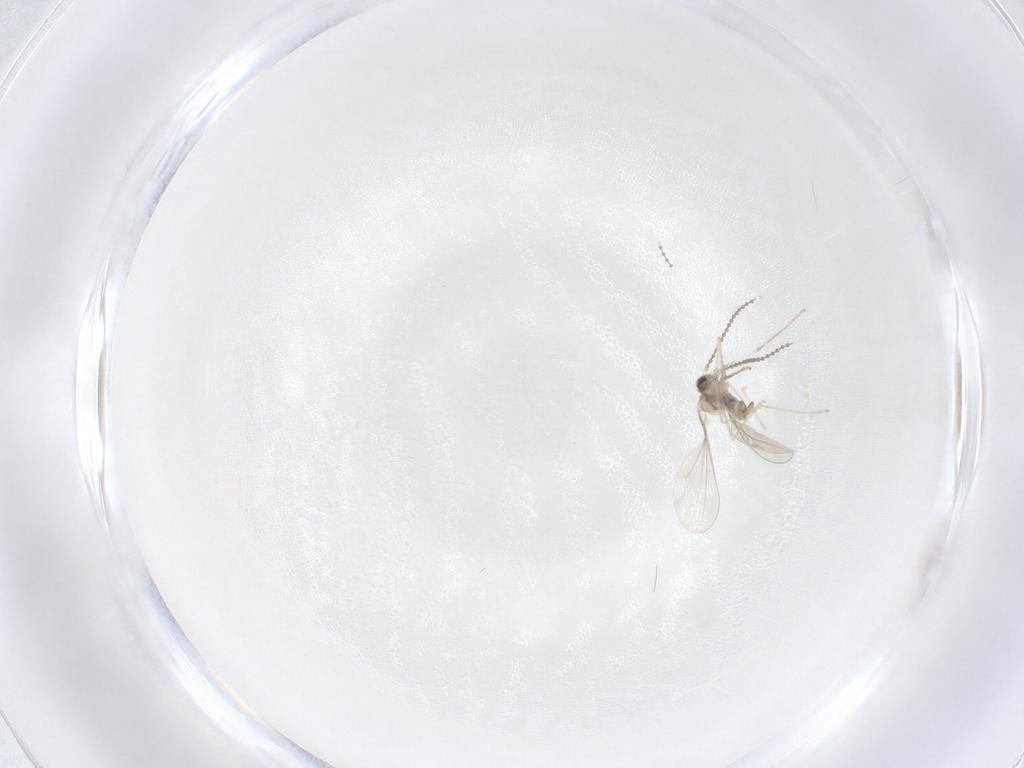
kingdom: Animalia
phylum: Arthropoda
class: Insecta
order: Diptera
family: Cecidomyiidae
